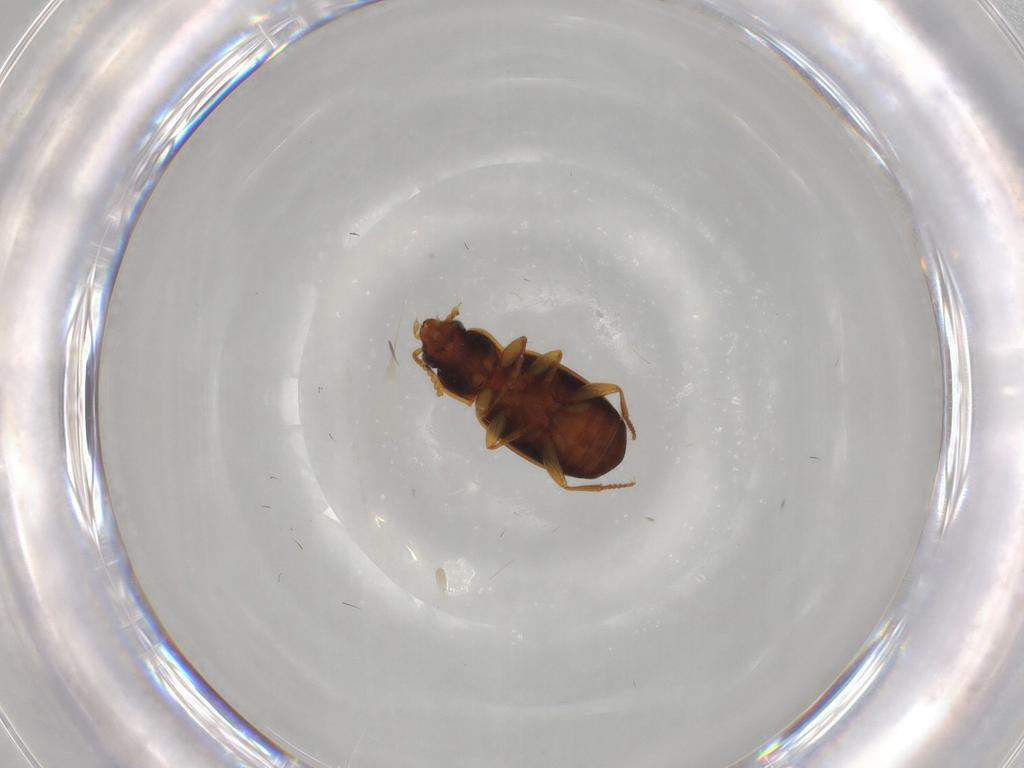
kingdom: Animalia
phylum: Arthropoda
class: Insecta
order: Coleoptera
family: Carabidae
